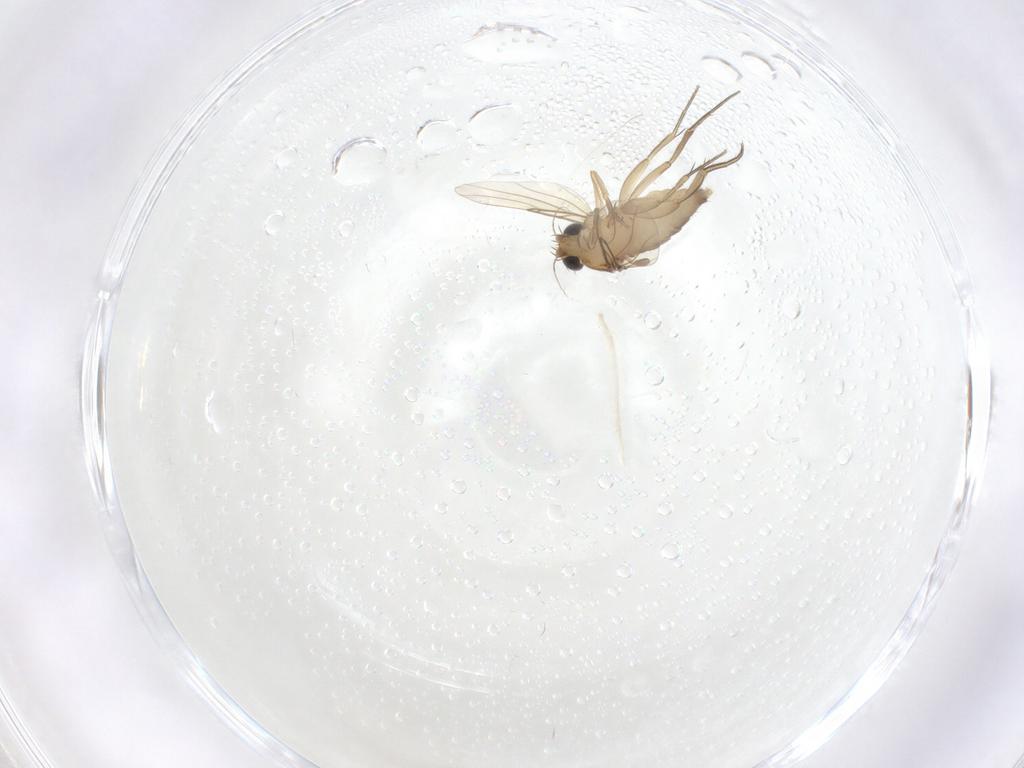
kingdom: Animalia
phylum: Arthropoda
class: Insecta
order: Diptera
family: Phoridae
